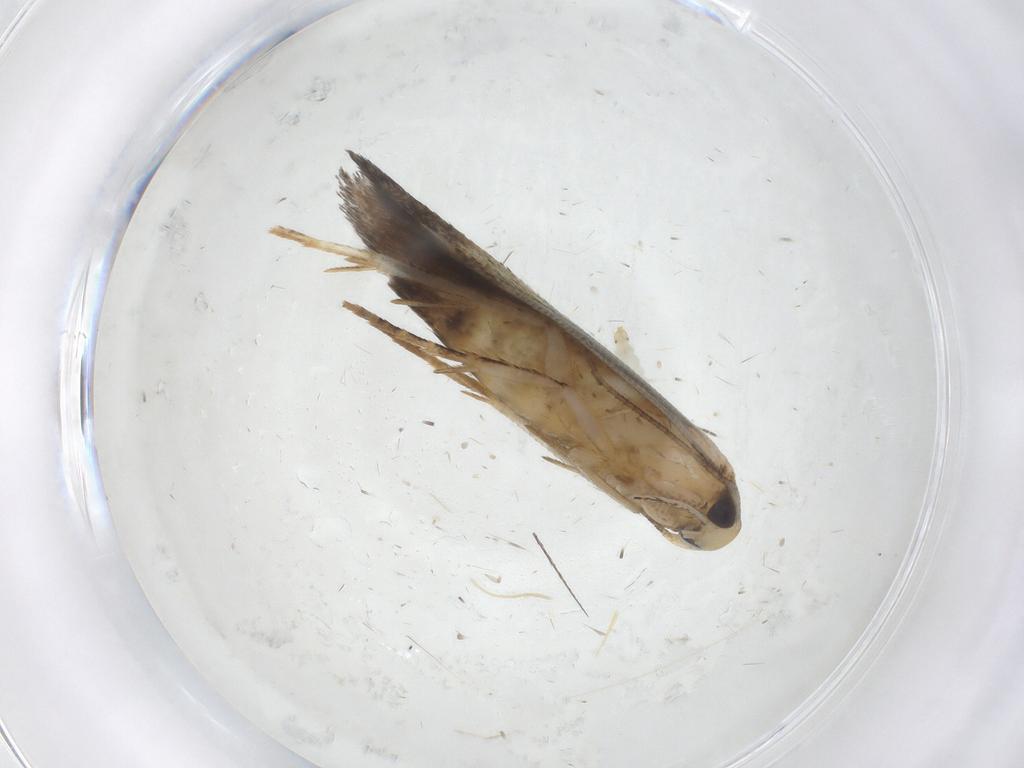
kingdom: Animalia
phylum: Arthropoda
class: Insecta
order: Lepidoptera
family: Cosmopterigidae
